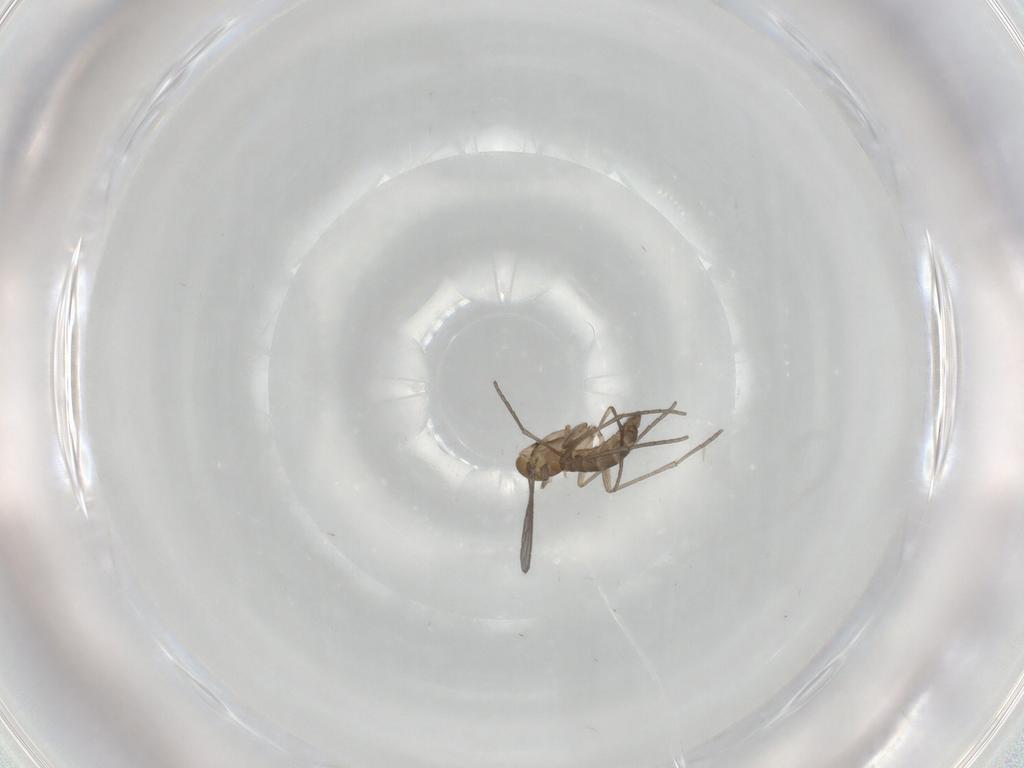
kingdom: Animalia
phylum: Arthropoda
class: Insecta
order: Diptera
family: Sciaridae
